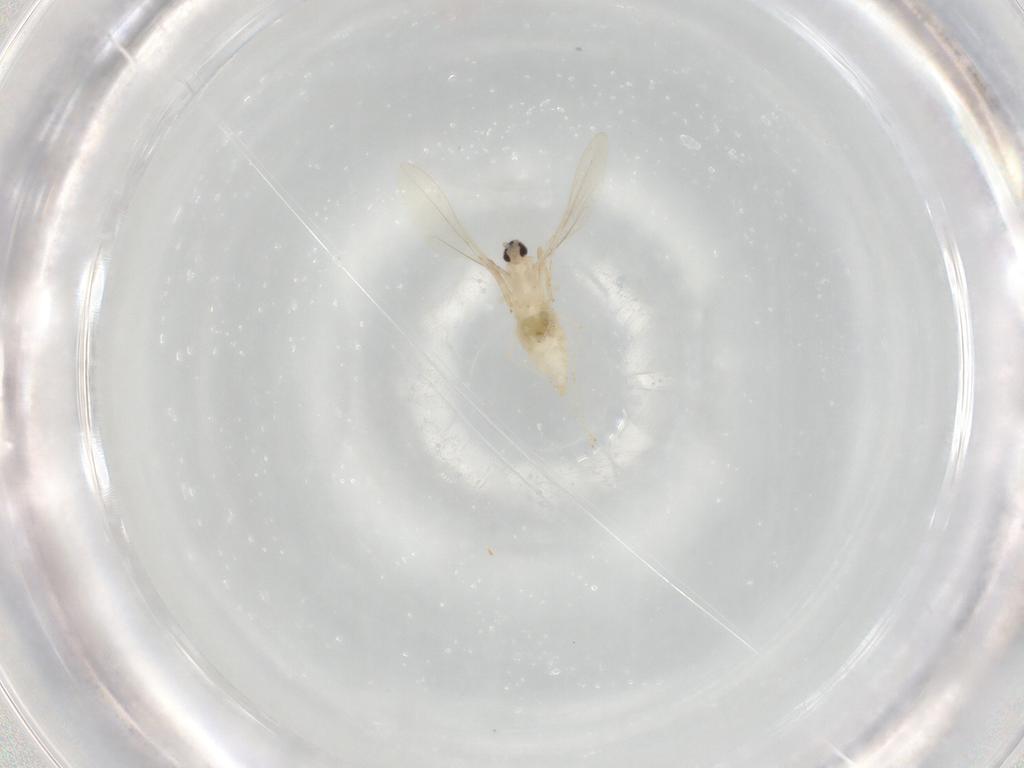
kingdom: Animalia
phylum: Arthropoda
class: Insecta
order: Diptera
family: Cecidomyiidae
